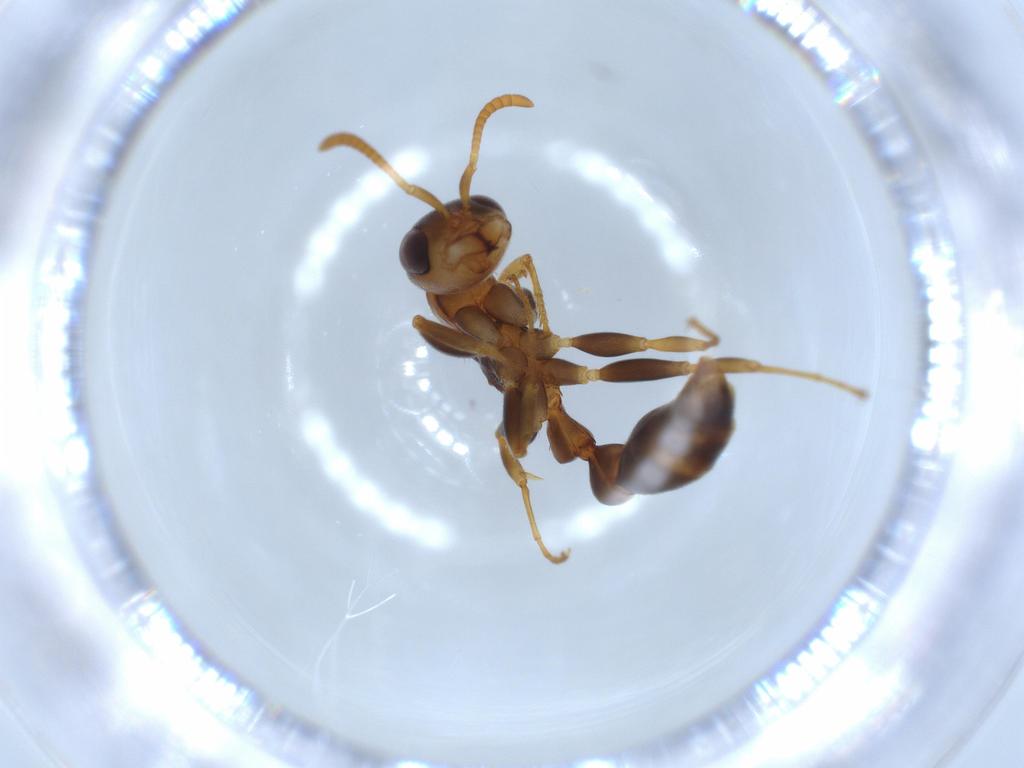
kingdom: Animalia
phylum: Arthropoda
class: Insecta
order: Hymenoptera
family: Formicidae
